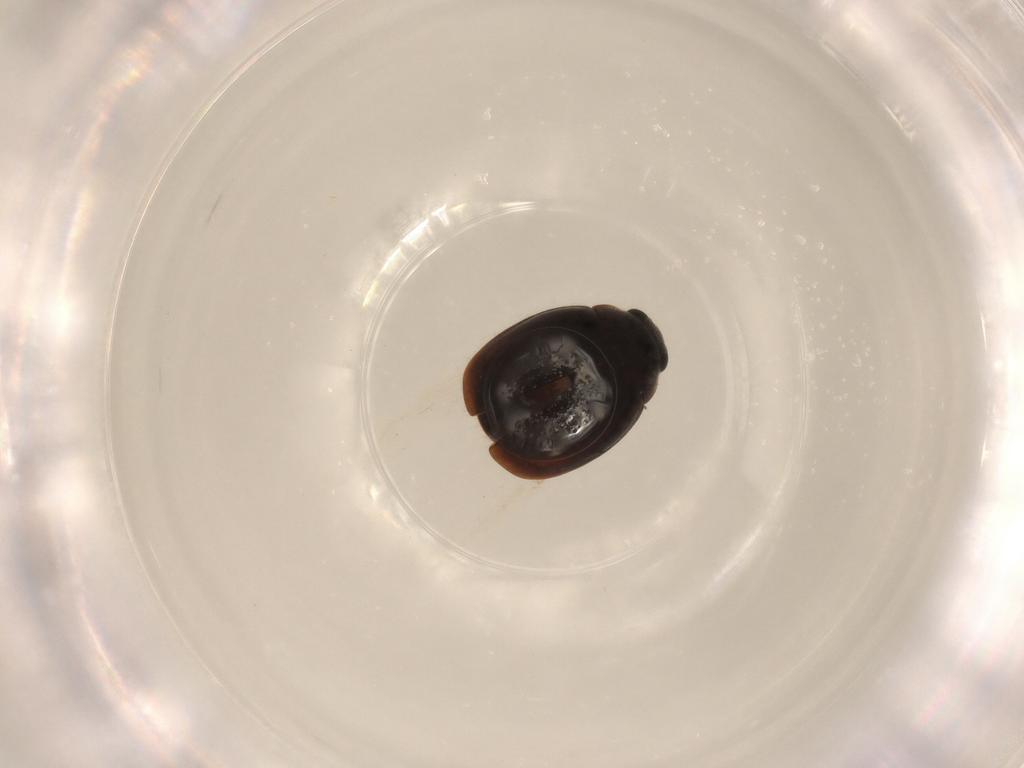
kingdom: Animalia
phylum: Arthropoda
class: Insecta
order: Coleoptera
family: Coccinellidae
